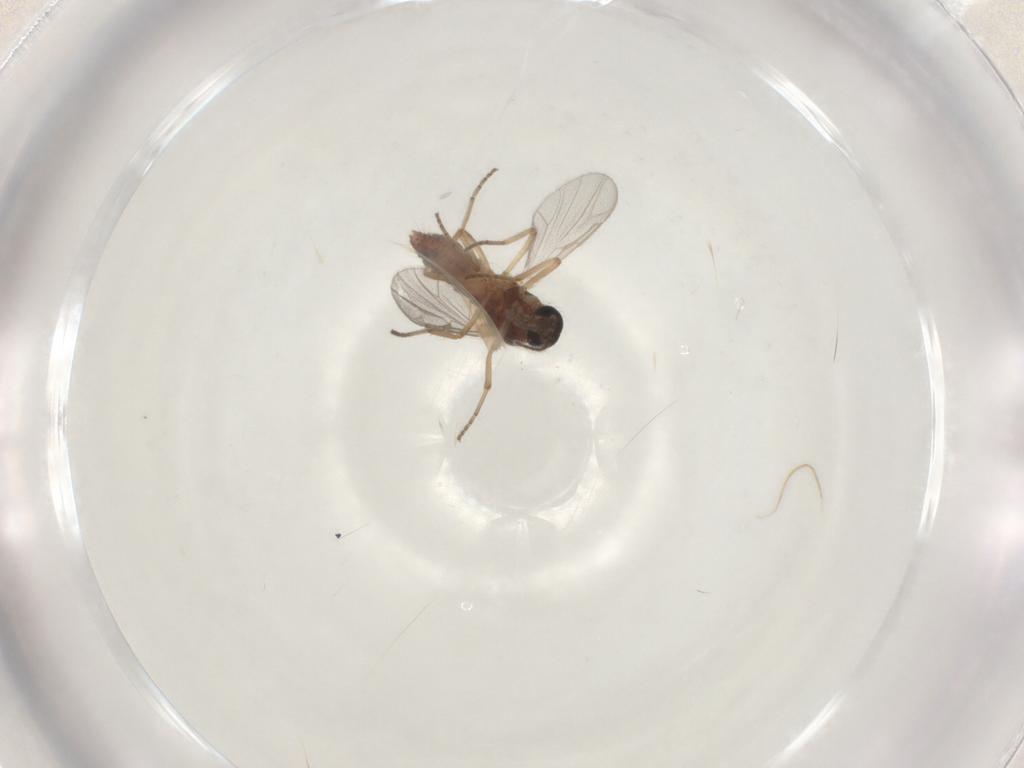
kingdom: Animalia
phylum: Arthropoda
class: Insecta
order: Diptera
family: Ceratopogonidae
